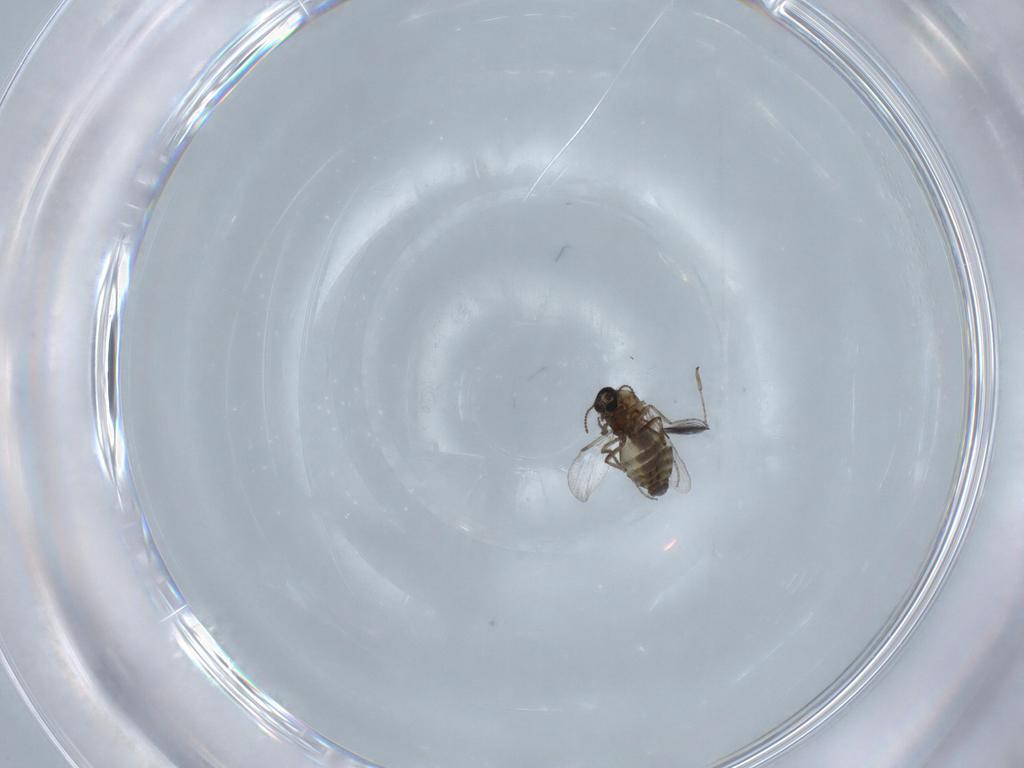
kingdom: Animalia
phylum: Arthropoda
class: Insecta
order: Diptera
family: Ceratopogonidae
